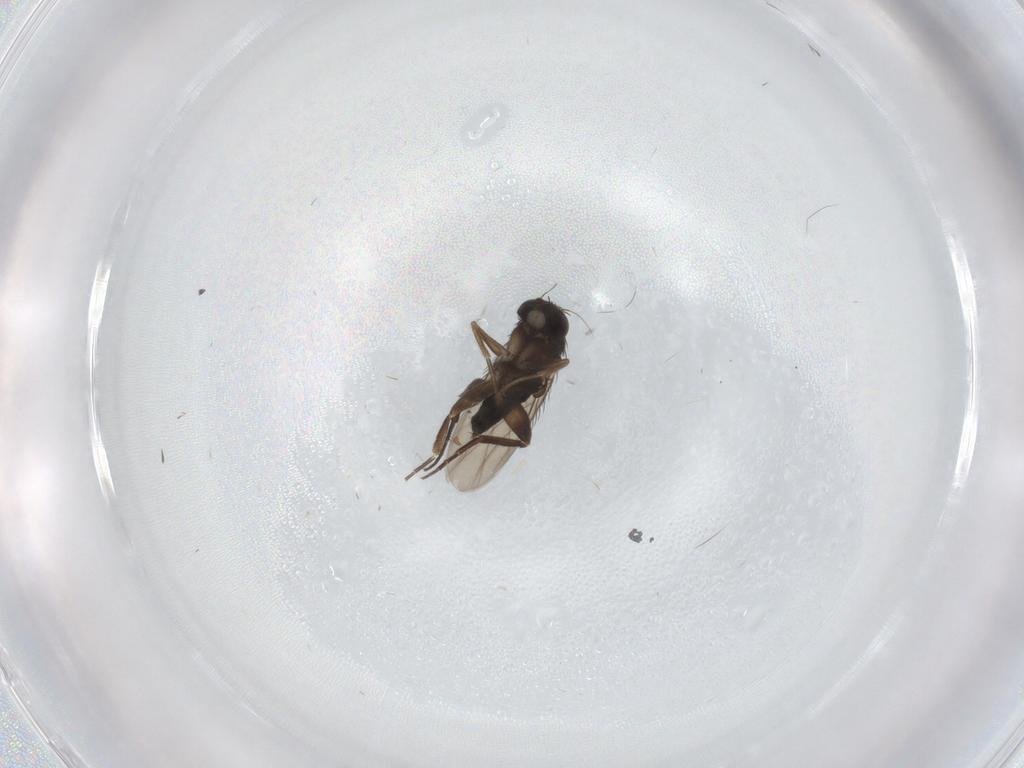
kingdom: Animalia
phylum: Arthropoda
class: Insecta
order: Diptera
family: Phoridae
